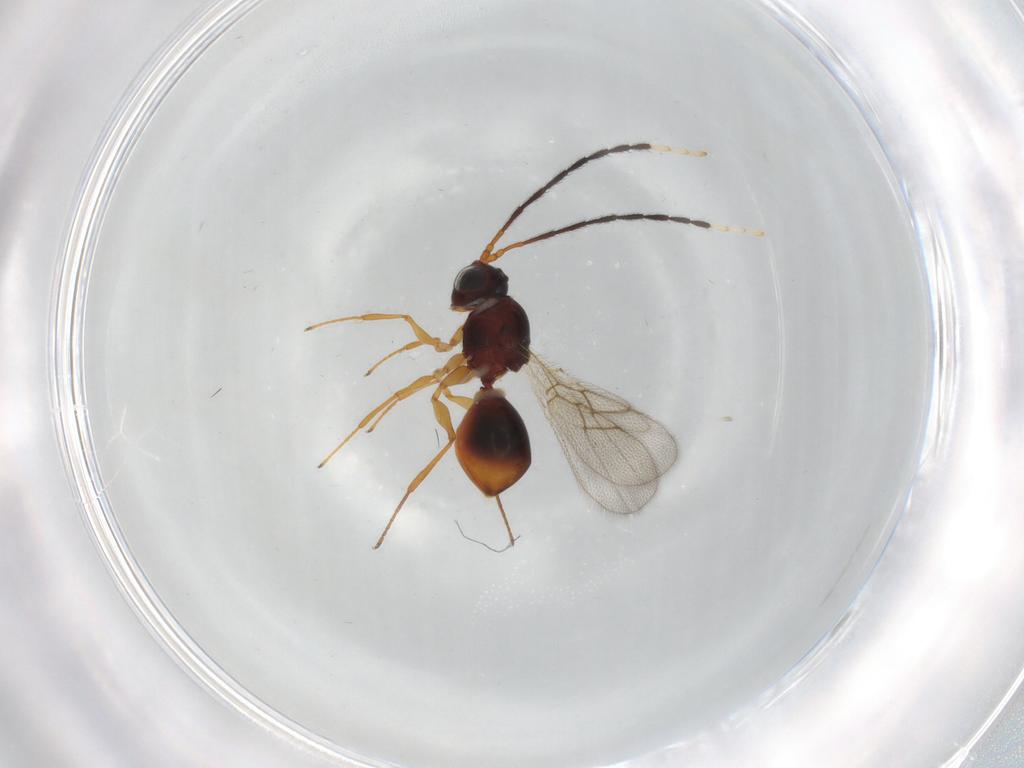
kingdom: Animalia
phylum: Arthropoda
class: Insecta
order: Hymenoptera
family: Figitidae
